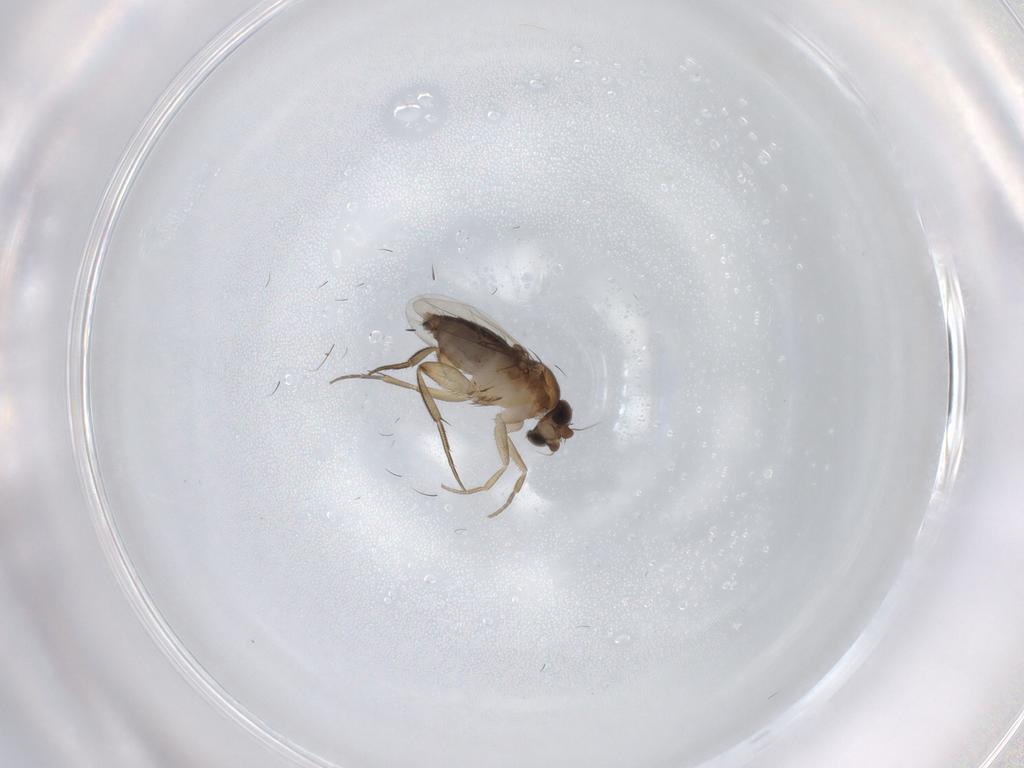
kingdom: Animalia
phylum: Arthropoda
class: Insecta
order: Diptera
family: Phoridae
